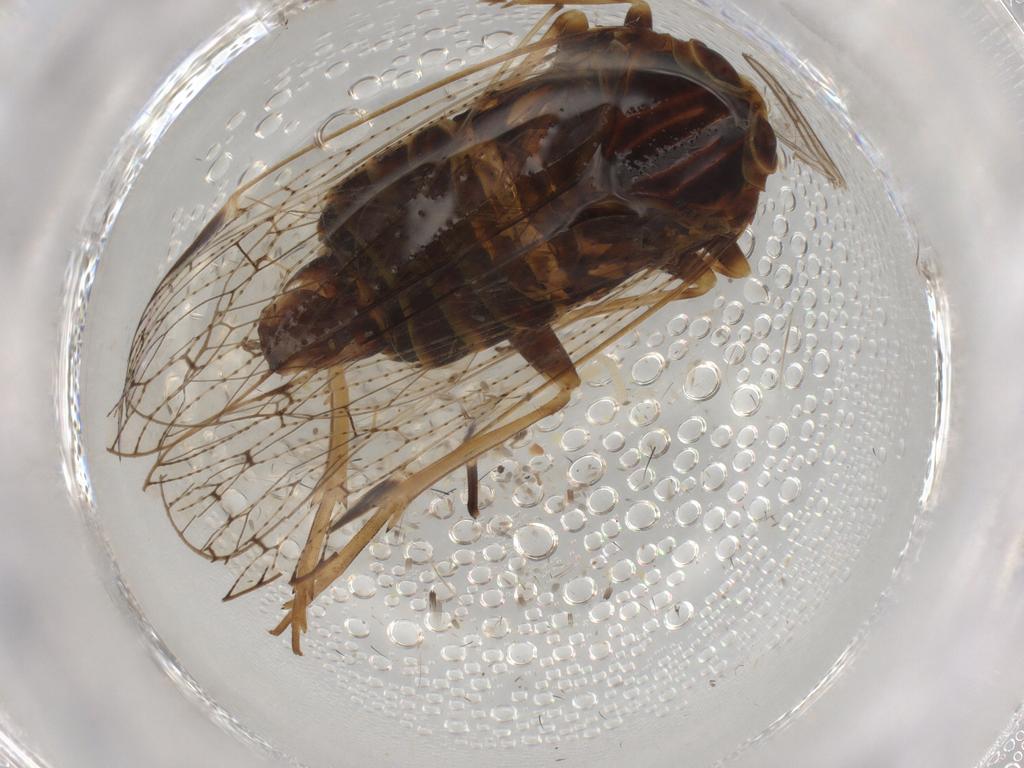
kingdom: Animalia
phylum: Arthropoda
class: Insecta
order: Hemiptera
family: Cixiidae
